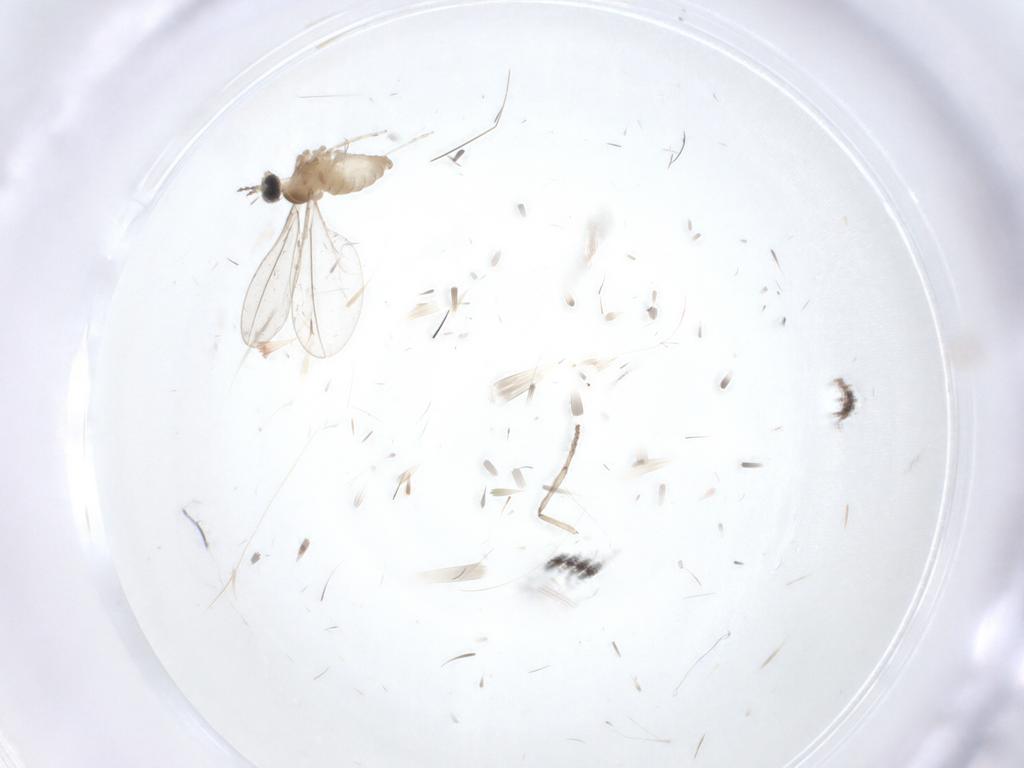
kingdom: Animalia
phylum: Arthropoda
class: Insecta
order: Diptera
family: Cecidomyiidae
